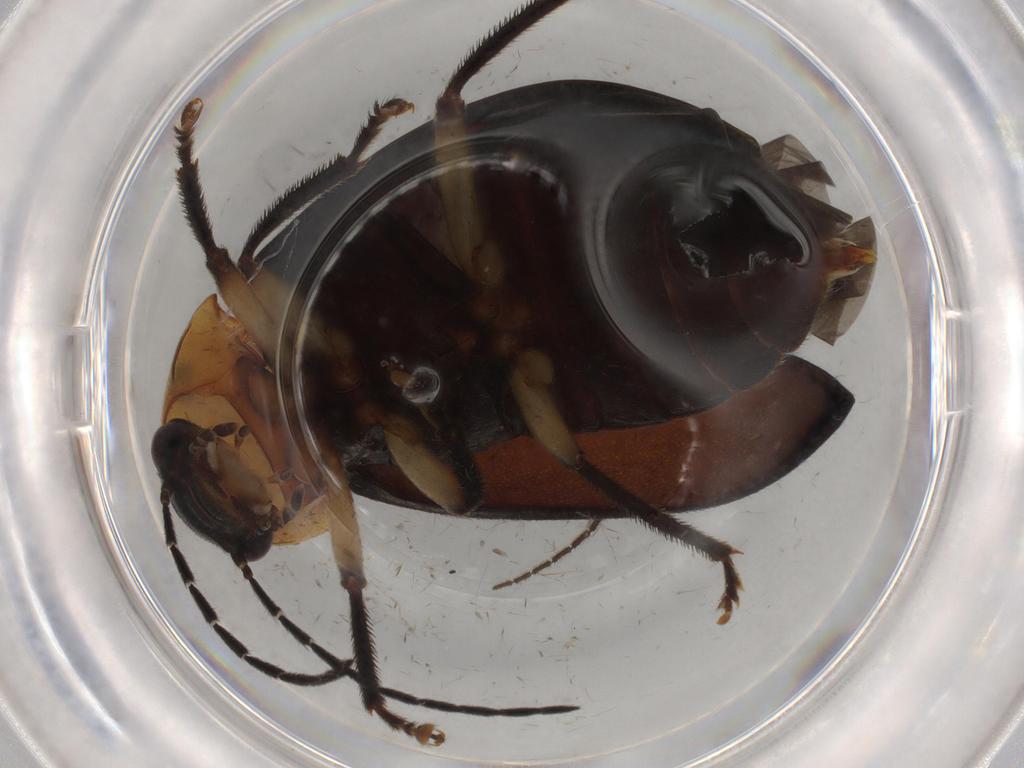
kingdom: Animalia
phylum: Arthropoda
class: Insecta
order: Coleoptera
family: Ptilodactylidae
